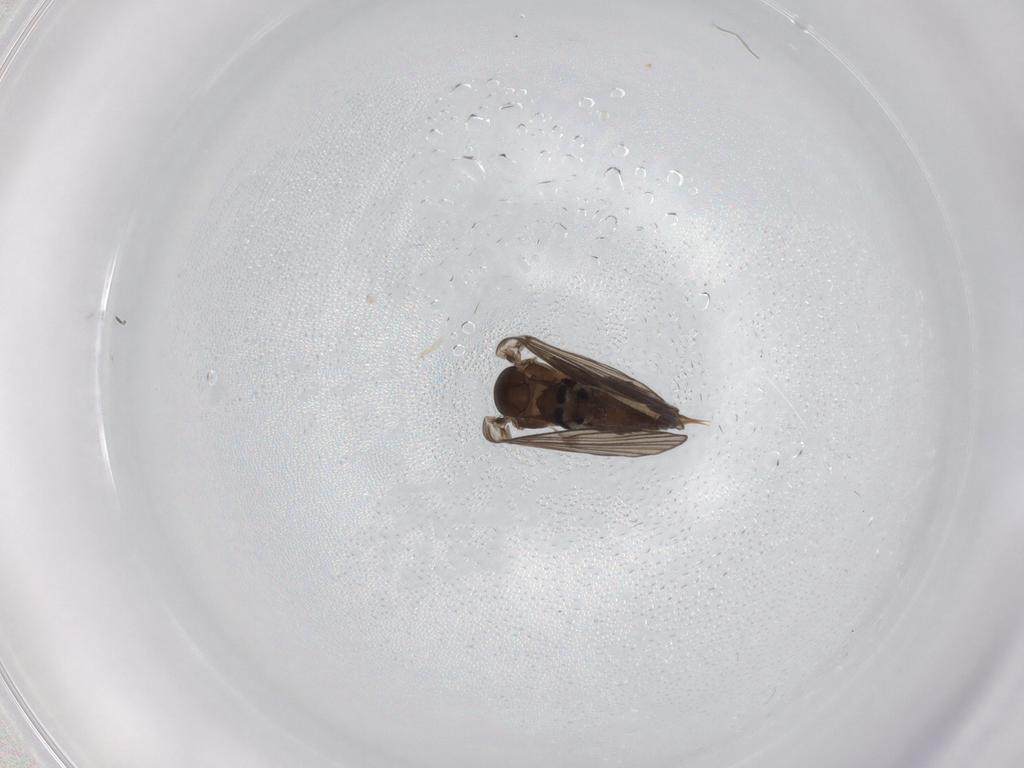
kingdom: Animalia
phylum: Arthropoda
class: Insecta
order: Diptera
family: Psychodidae
